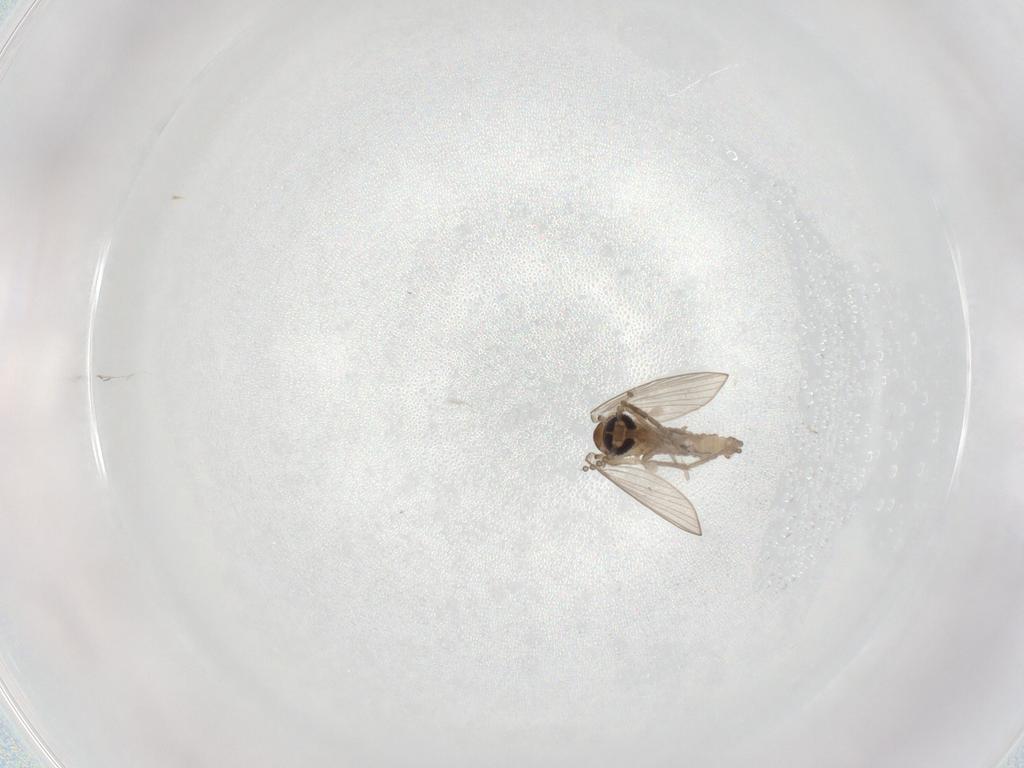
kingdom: Animalia
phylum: Arthropoda
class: Insecta
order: Diptera
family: Psychodidae
